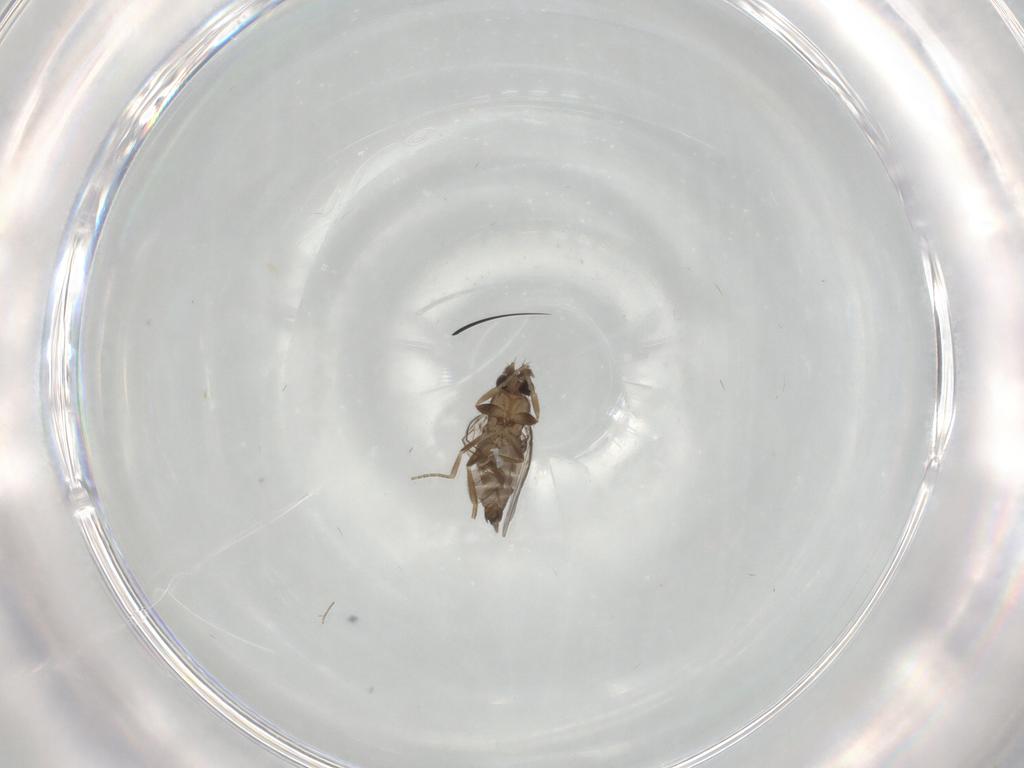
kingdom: Animalia
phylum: Arthropoda
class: Insecta
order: Diptera
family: Phoridae
